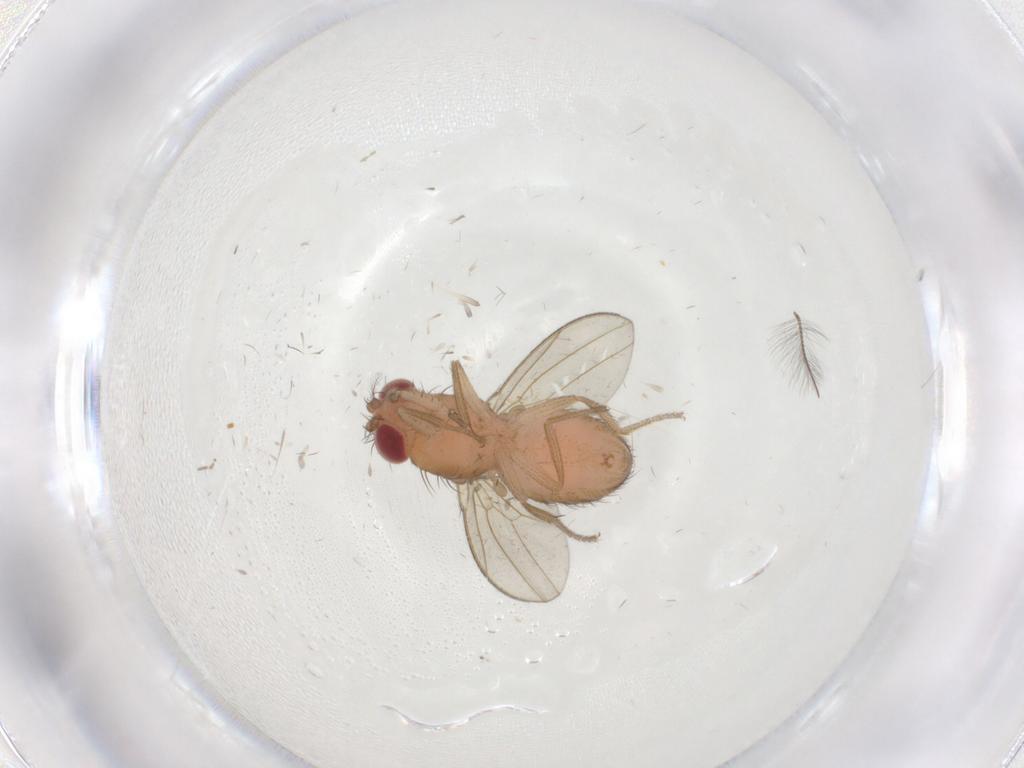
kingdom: Animalia
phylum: Arthropoda
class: Insecta
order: Diptera
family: Drosophilidae
